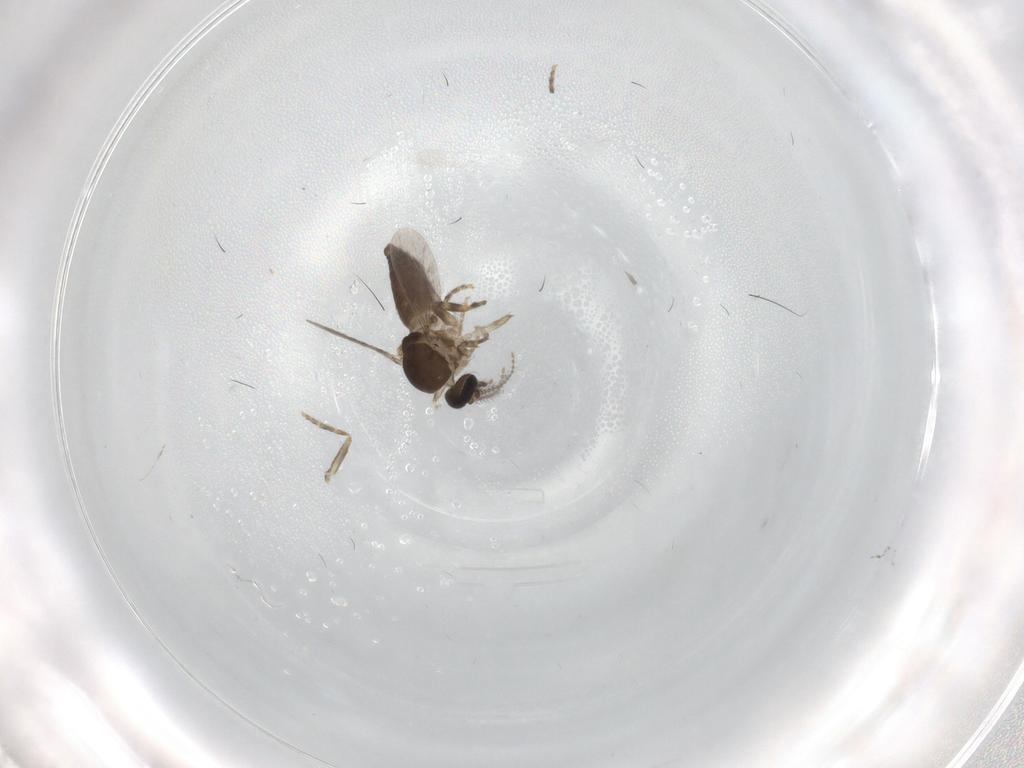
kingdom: Animalia
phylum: Arthropoda
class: Insecta
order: Diptera
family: Ceratopogonidae
